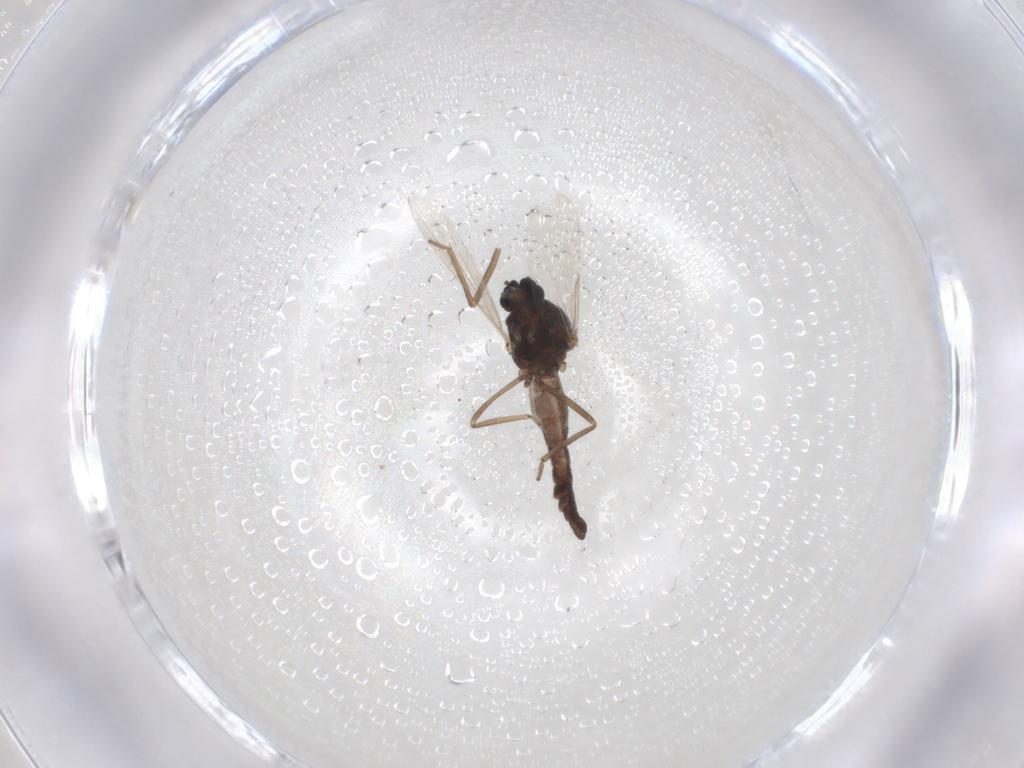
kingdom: Animalia
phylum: Arthropoda
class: Insecta
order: Diptera
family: Ceratopogonidae
